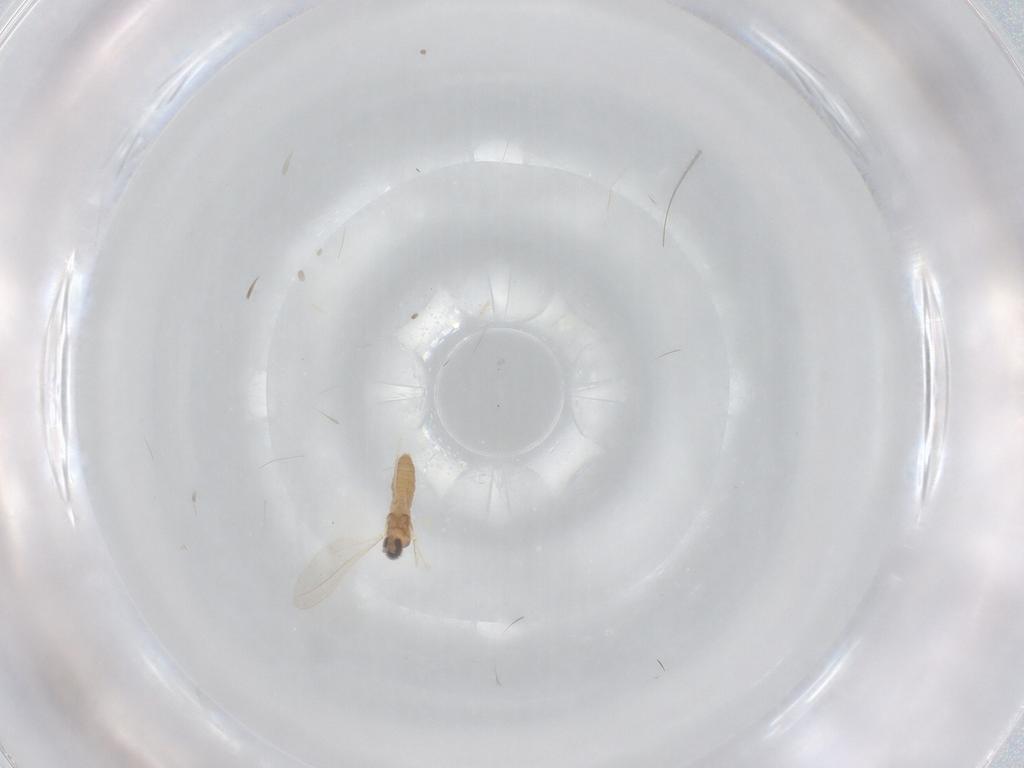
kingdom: Animalia
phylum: Arthropoda
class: Insecta
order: Diptera
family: Cecidomyiidae
